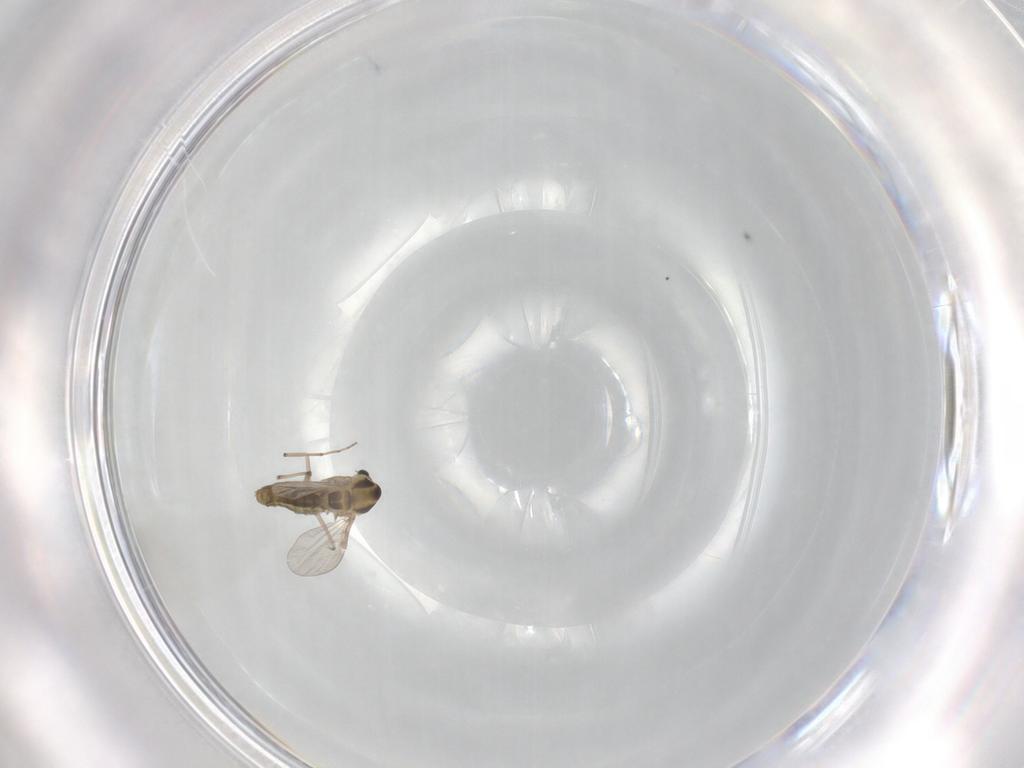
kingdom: Animalia
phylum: Arthropoda
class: Insecta
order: Diptera
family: Chironomidae
